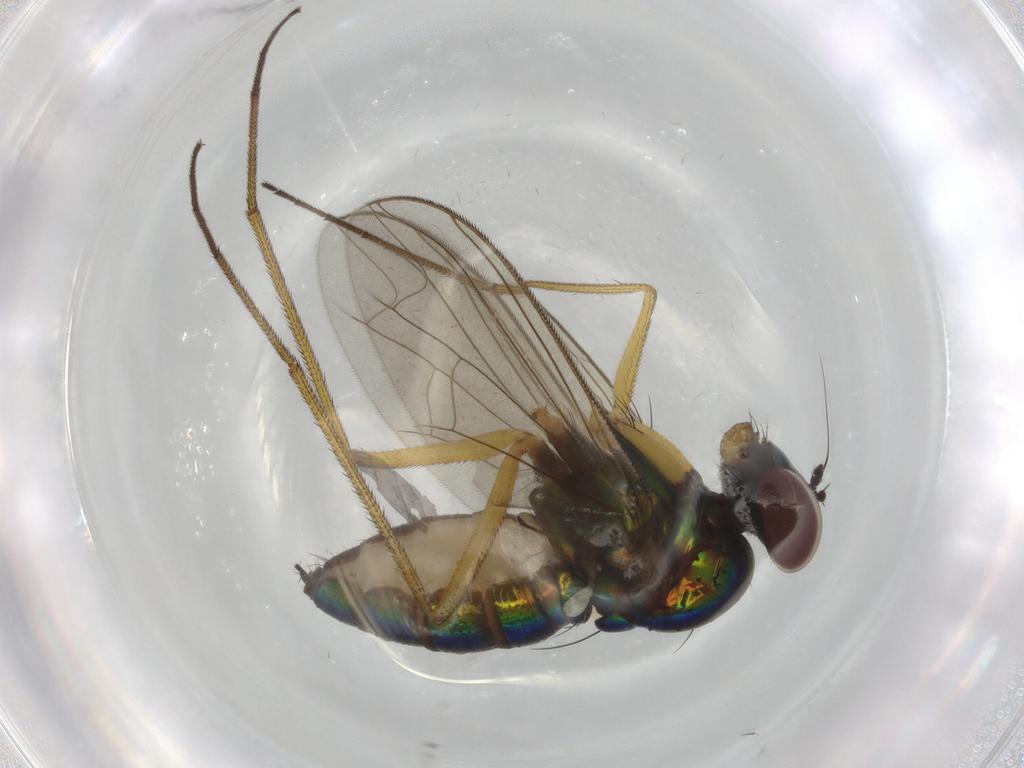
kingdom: Animalia
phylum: Arthropoda
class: Insecta
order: Diptera
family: Dolichopodidae
